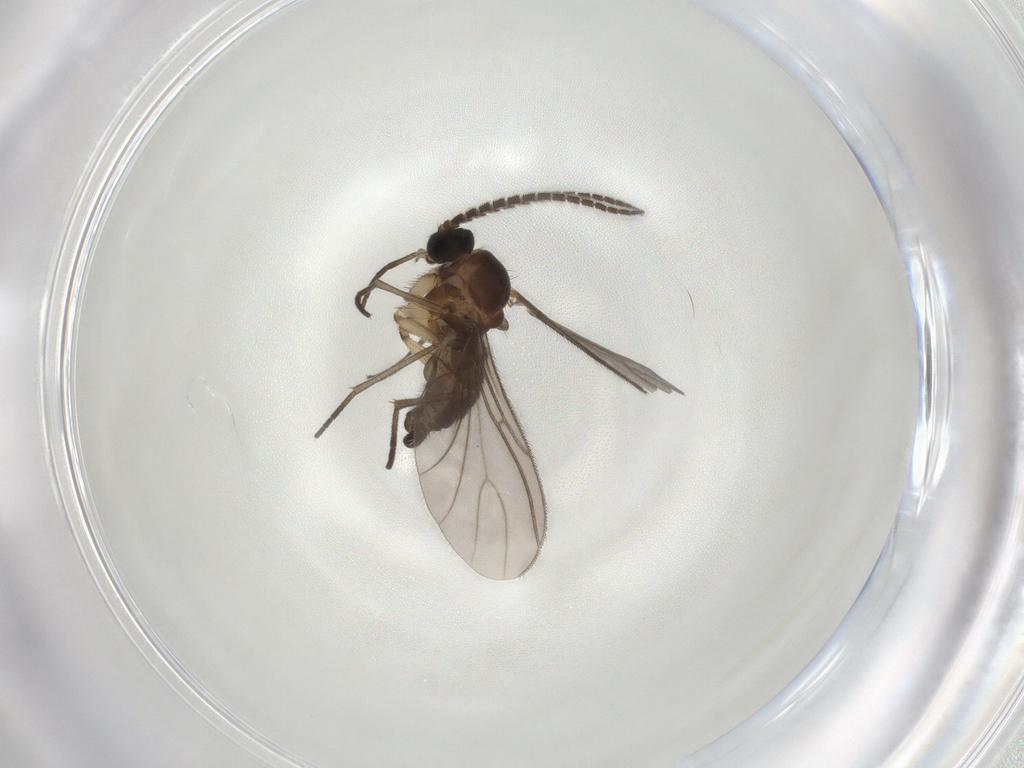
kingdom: Animalia
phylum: Arthropoda
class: Insecta
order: Diptera
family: Sciaridae
